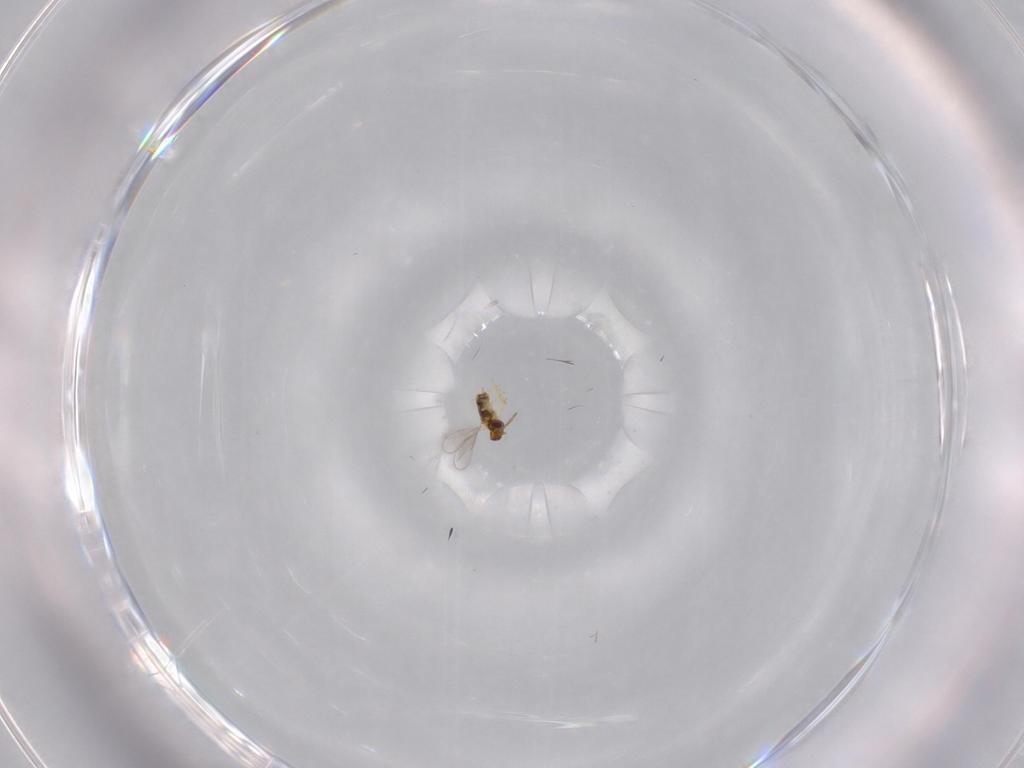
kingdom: Animalia
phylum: Arthropoda
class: Insecta
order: Hymenoptera
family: Aphelinidae
